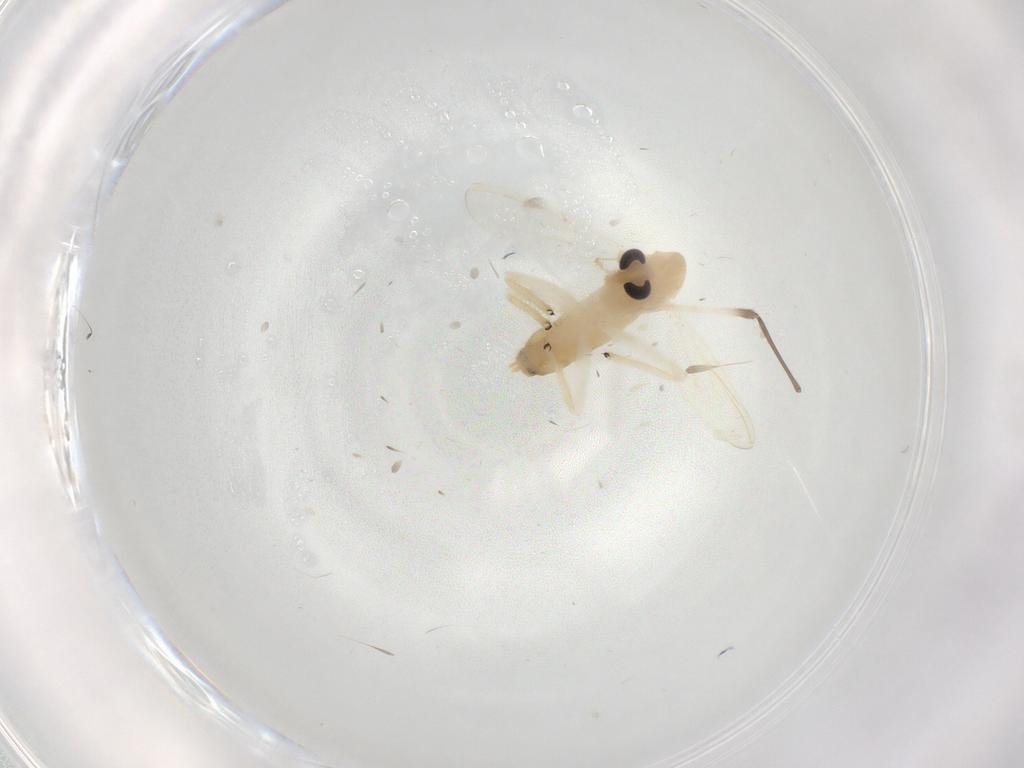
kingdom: Animalia
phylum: Arthropoda
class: Insecta
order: Diptera
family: Chironomidae
